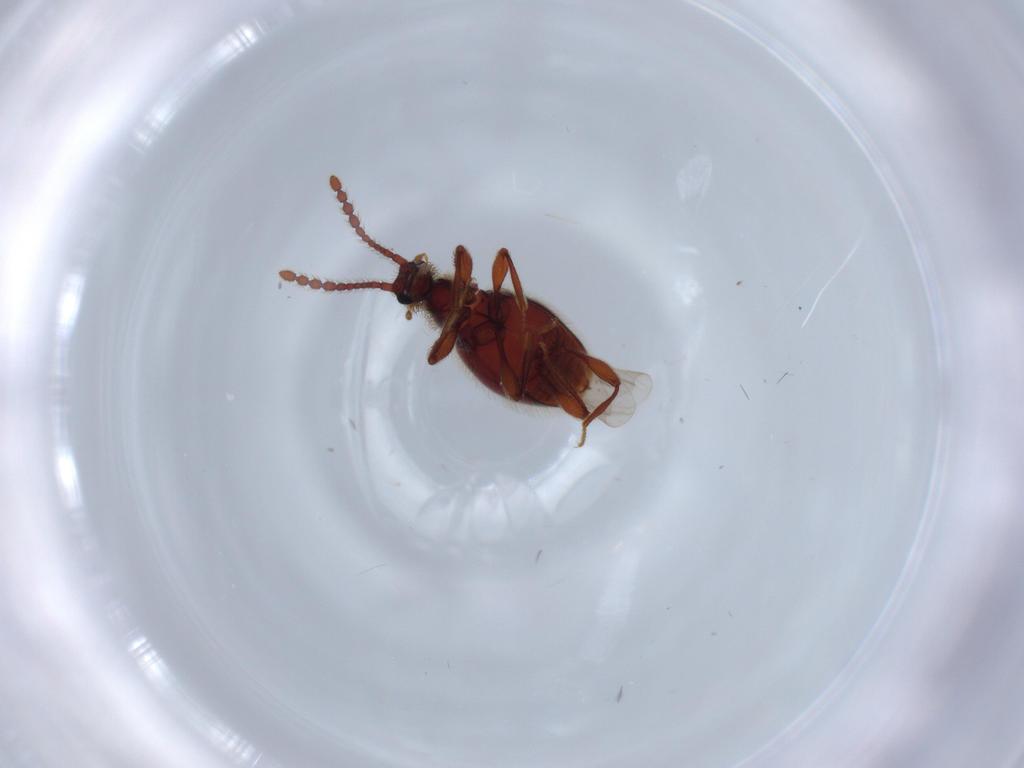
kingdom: Animalia
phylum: Arthropoda
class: Insecta
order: Coleoptera
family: Staphylinidae
